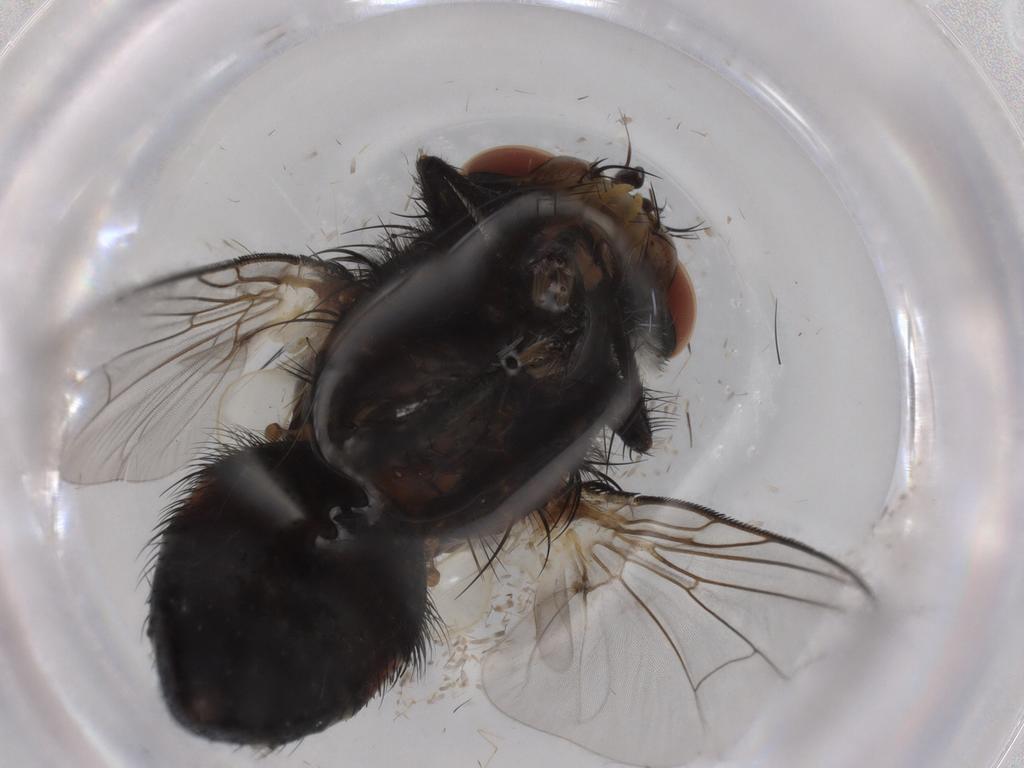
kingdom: Animalia
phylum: Arthropoda
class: Insecta
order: Diptera
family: Tachinidae
